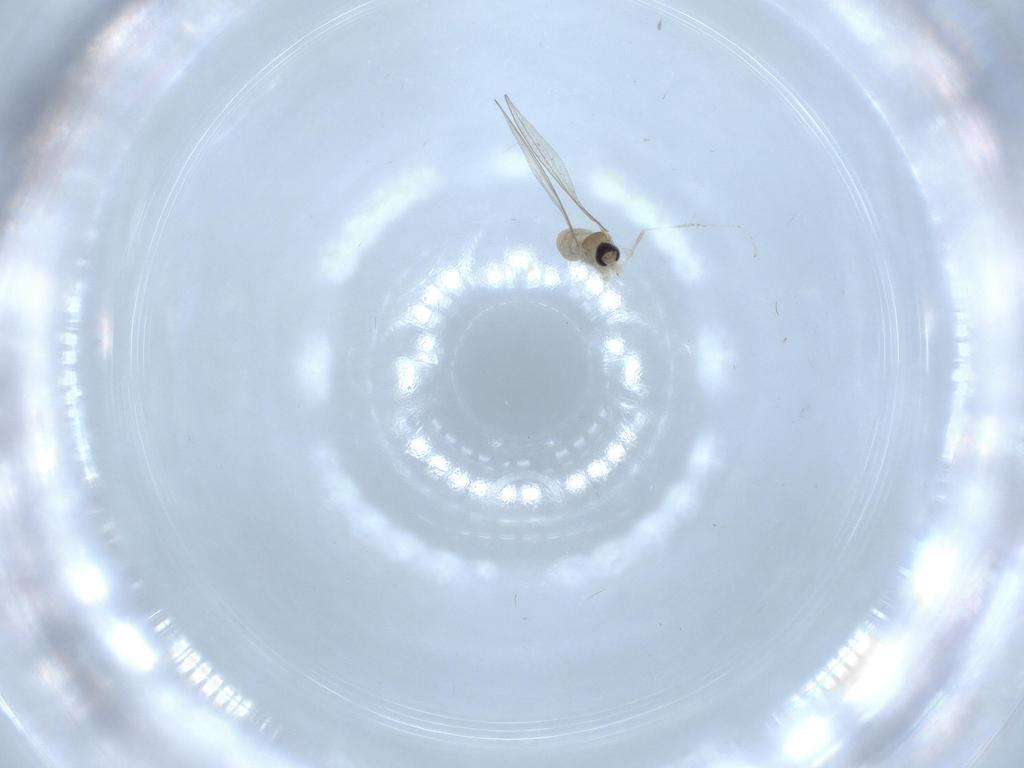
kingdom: Animalia
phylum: Arthropoda
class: Insecta
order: Diptera
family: Cecidomyiidae
